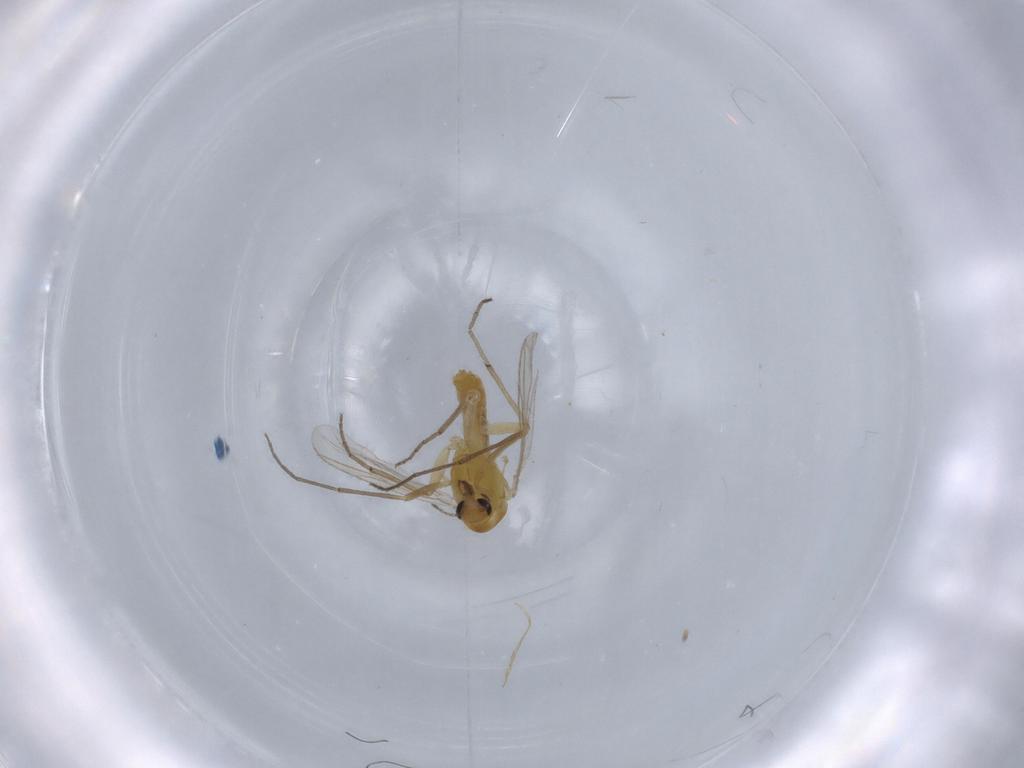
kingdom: Animalia
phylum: Arthropoda
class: Insecta
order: Diptera
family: Chironomidae
